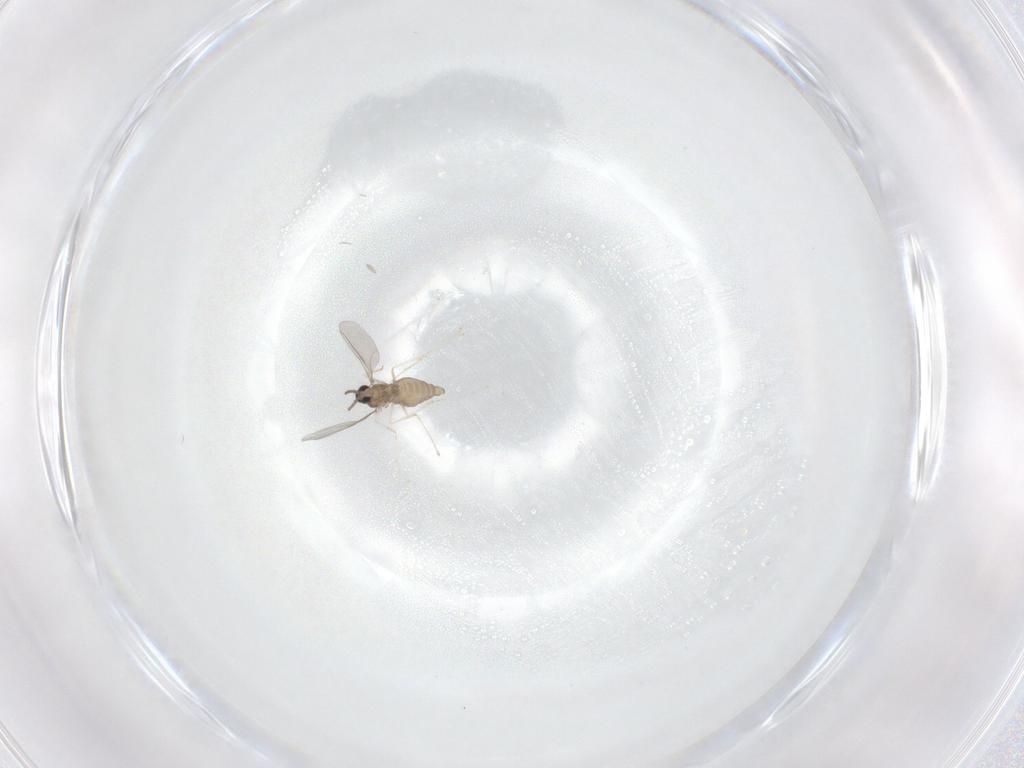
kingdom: Animalia
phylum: Arthropoda
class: Insecta
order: Diptera
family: Cecidomyiidae
